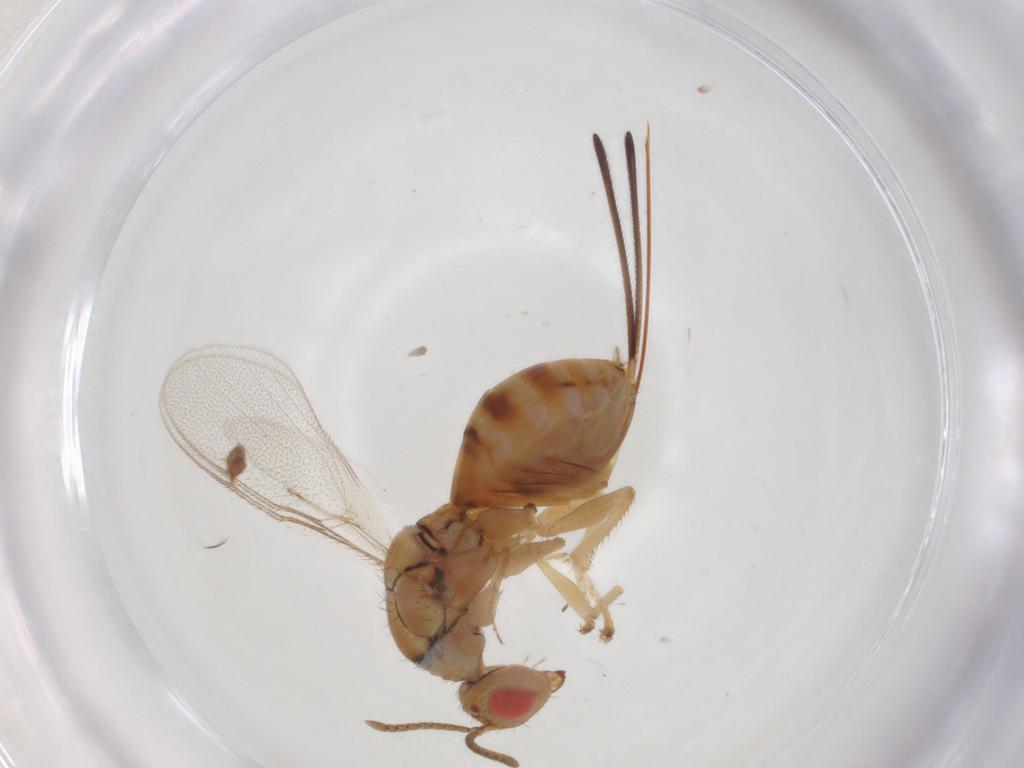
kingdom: Animalia
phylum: Arthropoda
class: Insecta
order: Hymenoptera
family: Megastigmidae
